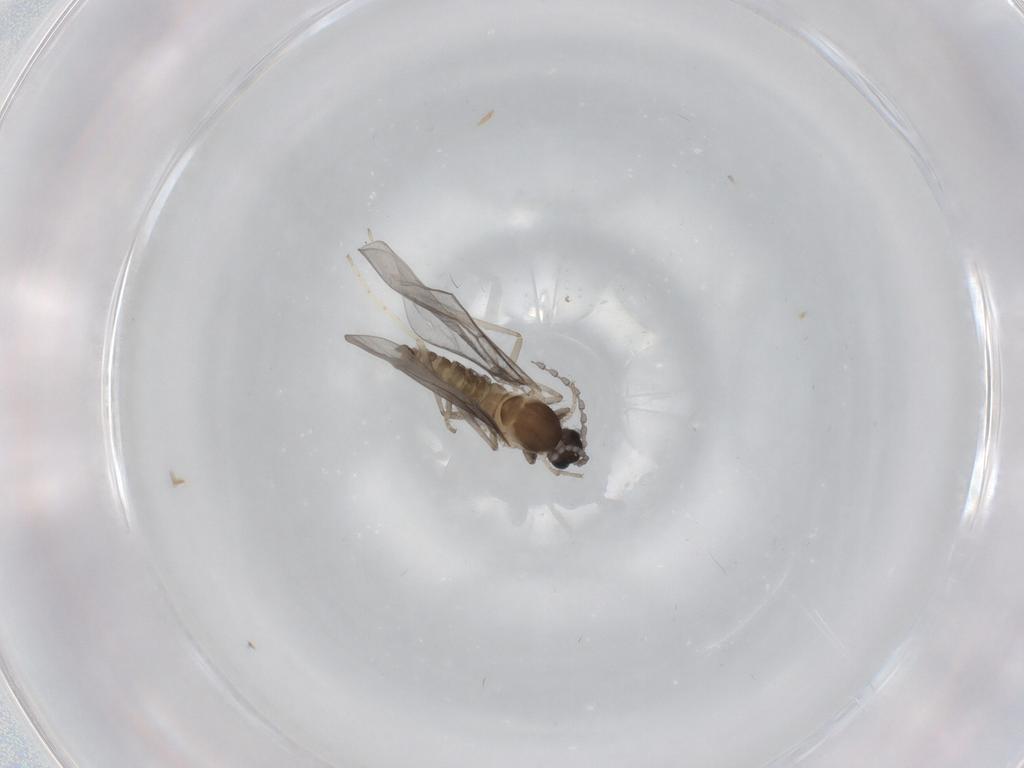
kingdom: Animalia
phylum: Arthropoda
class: Insecta
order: Diptera
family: Cecidomyiidae
